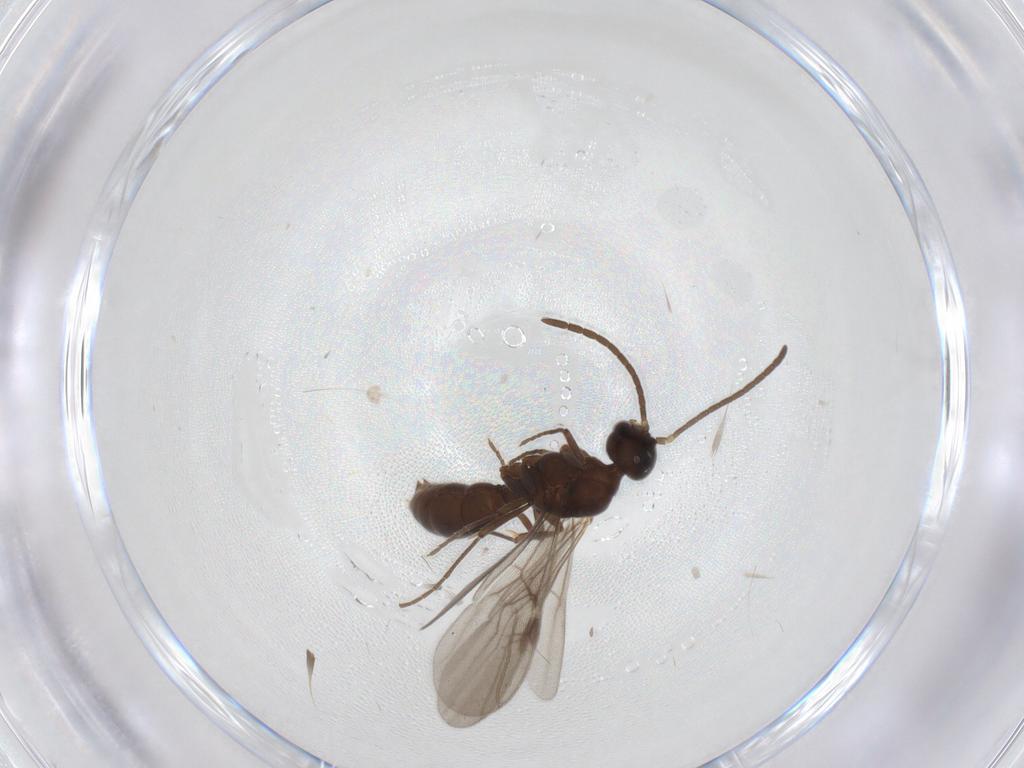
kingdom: Animalia
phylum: Arthropoda
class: Insecta
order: Hymenoptera
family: Formicidae
